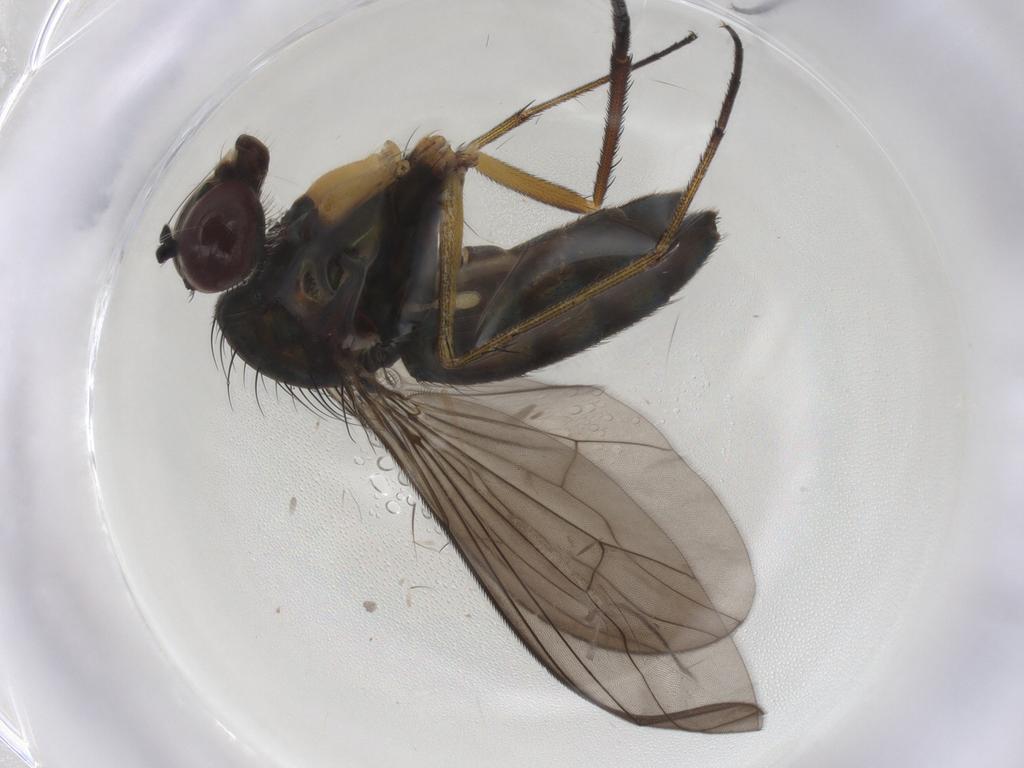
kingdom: Animalia
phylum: Arthropoda
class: Insecta
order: Diptera
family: Dolichopodidae
